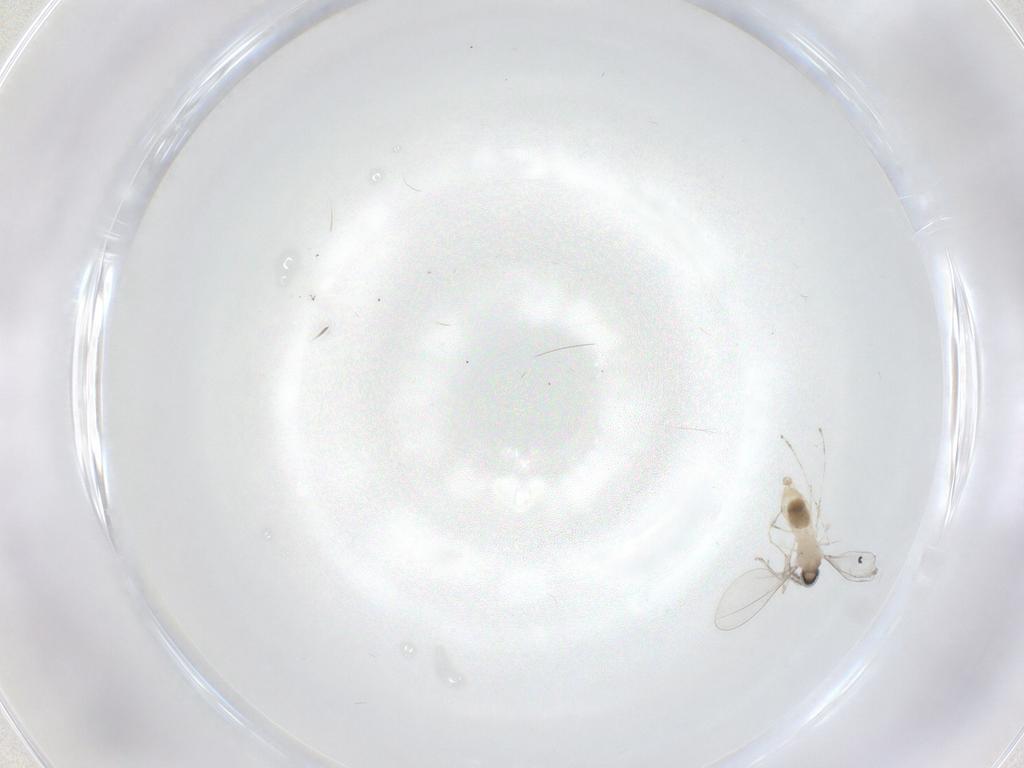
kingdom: Animalia
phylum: Arthropoda
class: Insecta
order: Diptera
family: Cecidomyiidae
